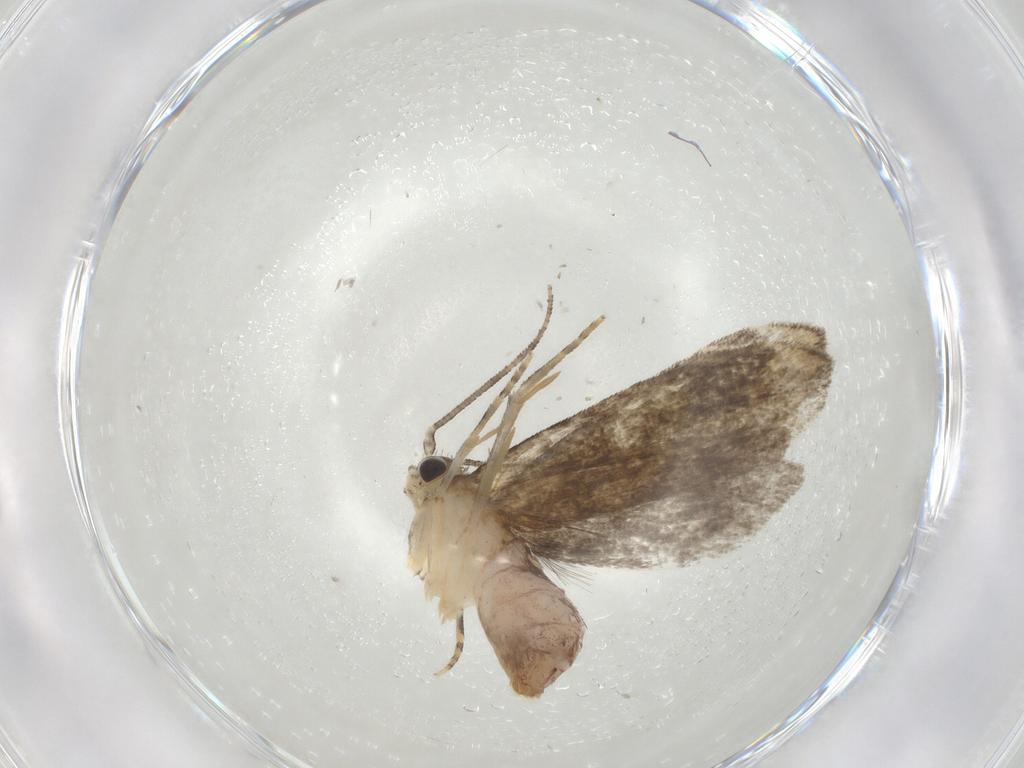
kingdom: Animalia
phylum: Arthropoda
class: Insecta
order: Lepidoptera
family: Tineidae
